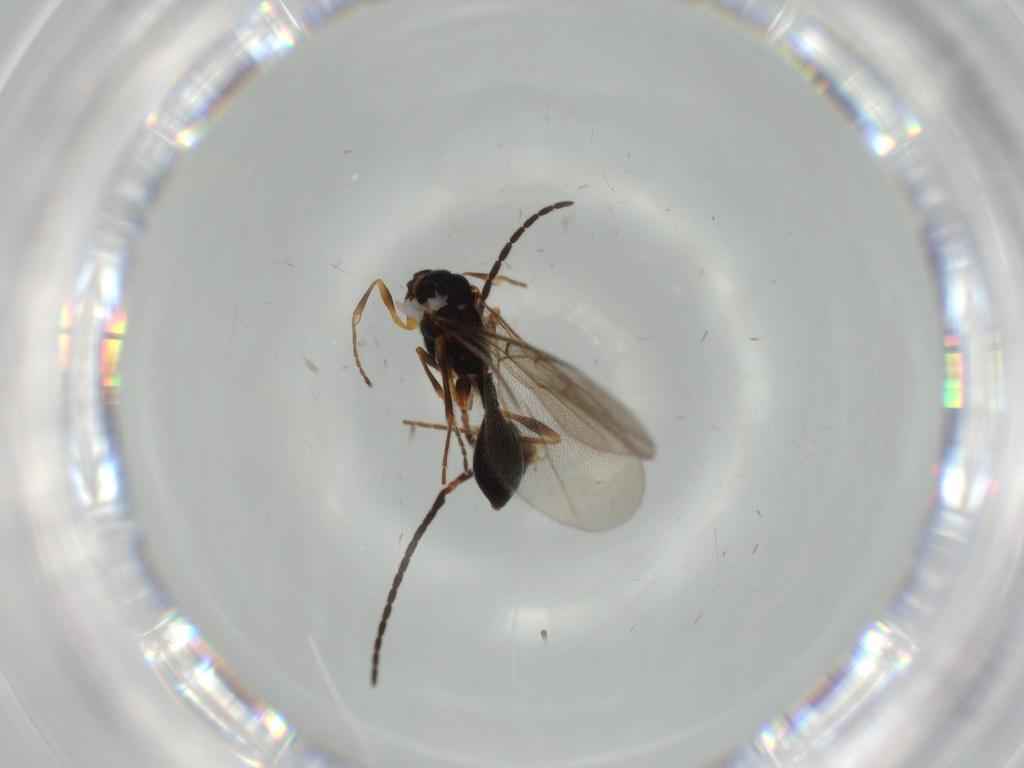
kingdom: Animalia
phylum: Arthropoda
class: Insecta
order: Hymenoptera
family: Diapriidae
